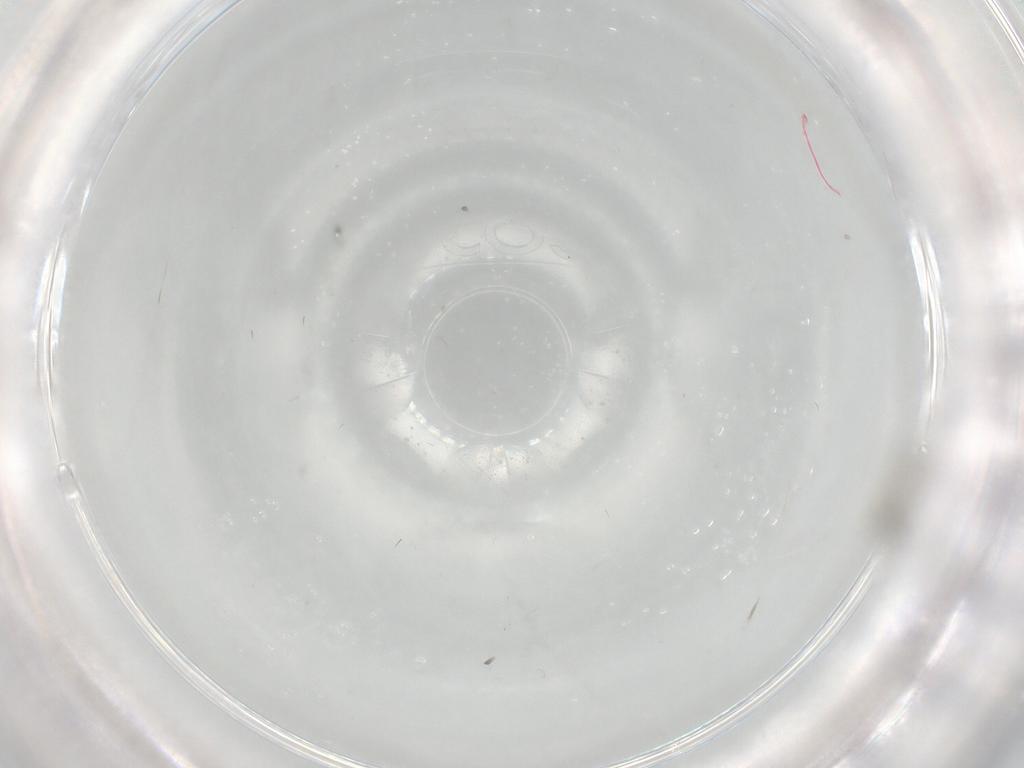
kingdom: Animalia
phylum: Arthropoda
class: Insecta
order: Diptera
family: Cecidomyiidae
